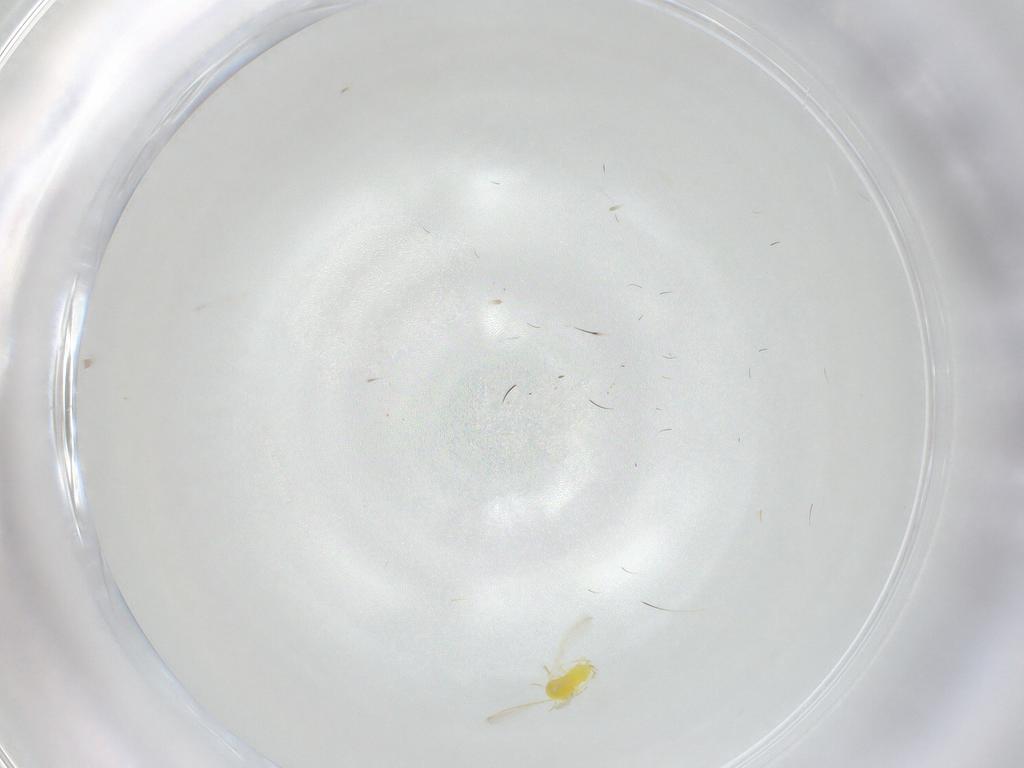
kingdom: Animalia
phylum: Arthropoda
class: Insecta
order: Hemiptera
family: Aleyrodidae
